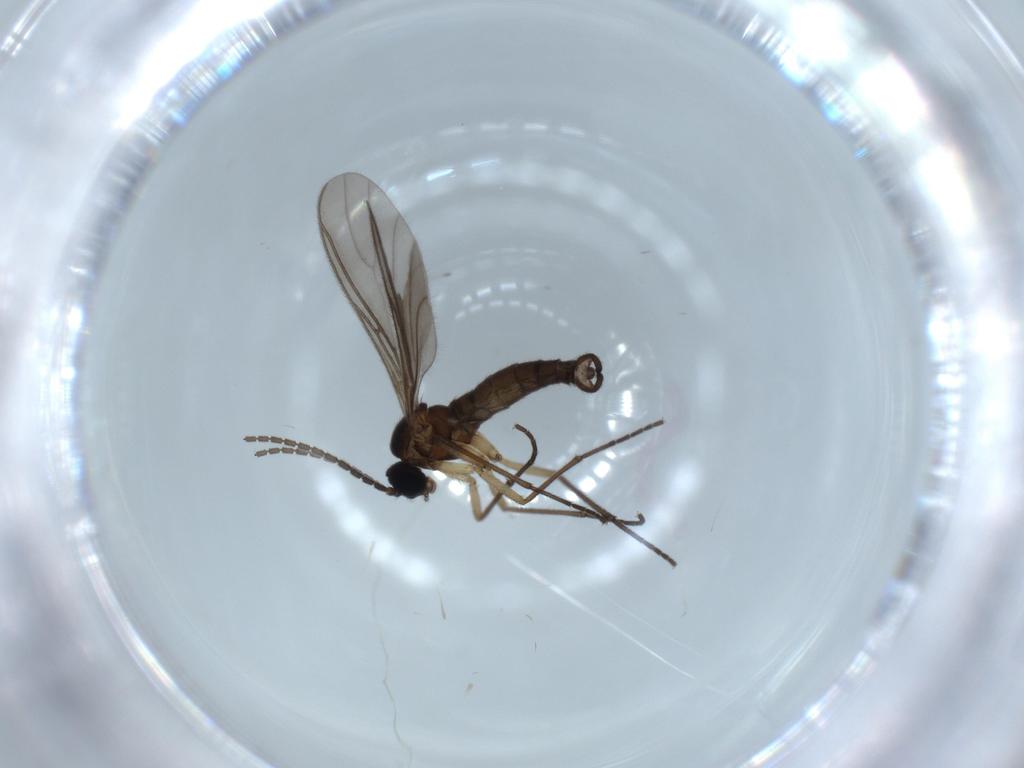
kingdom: Animalia
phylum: Arthropoda
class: Insecta
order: Diptera
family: Sciaridae
